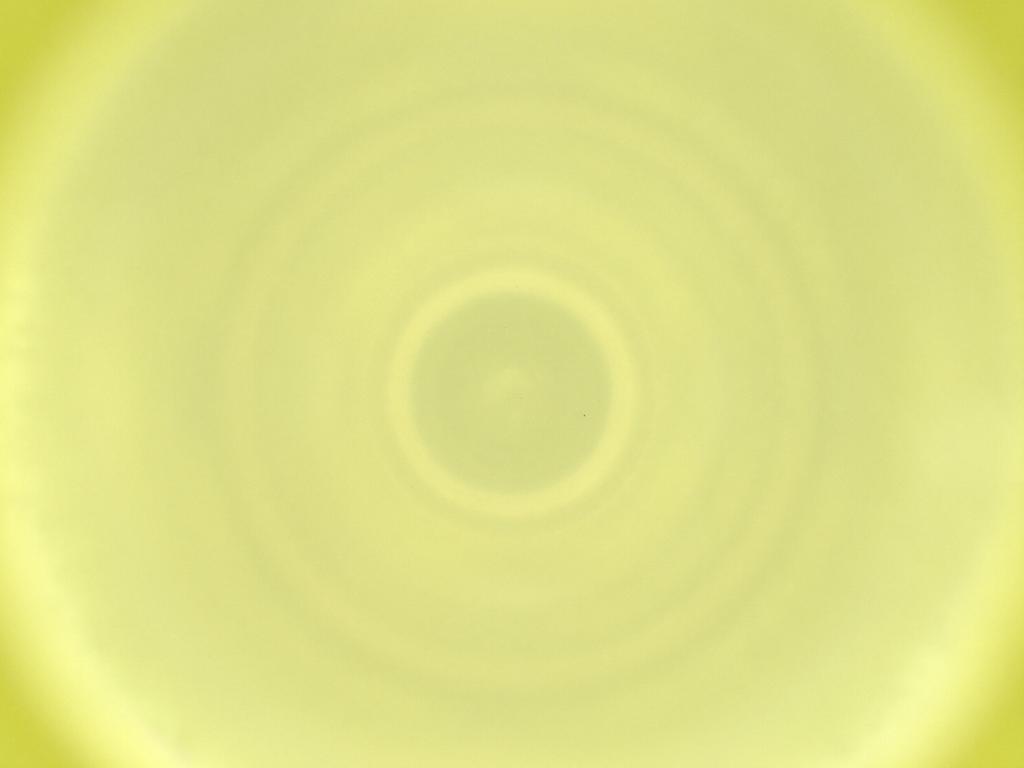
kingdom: Animalia
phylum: Arthropoda
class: Insecta
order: Diptera
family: Cecidomyiidae
